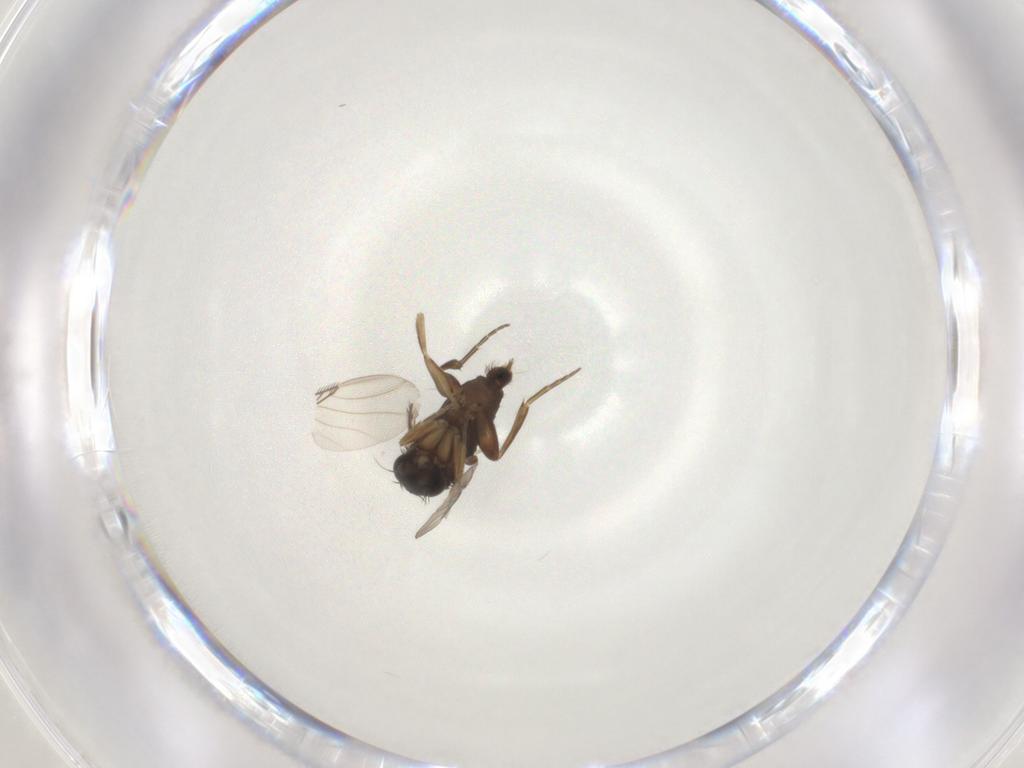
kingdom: Animalia
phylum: Arthropoda
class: Insecta
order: Diptera
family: Phoridae
